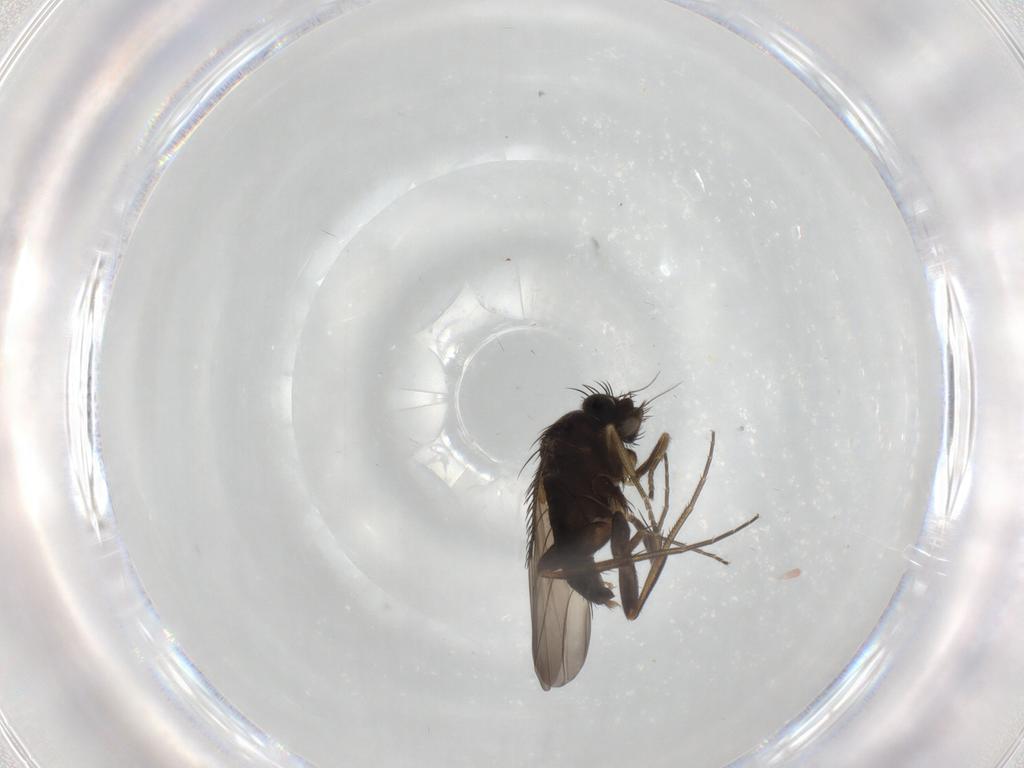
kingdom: Animalia
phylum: Arthropoda
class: Insecta
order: Diptera
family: Phoridae
